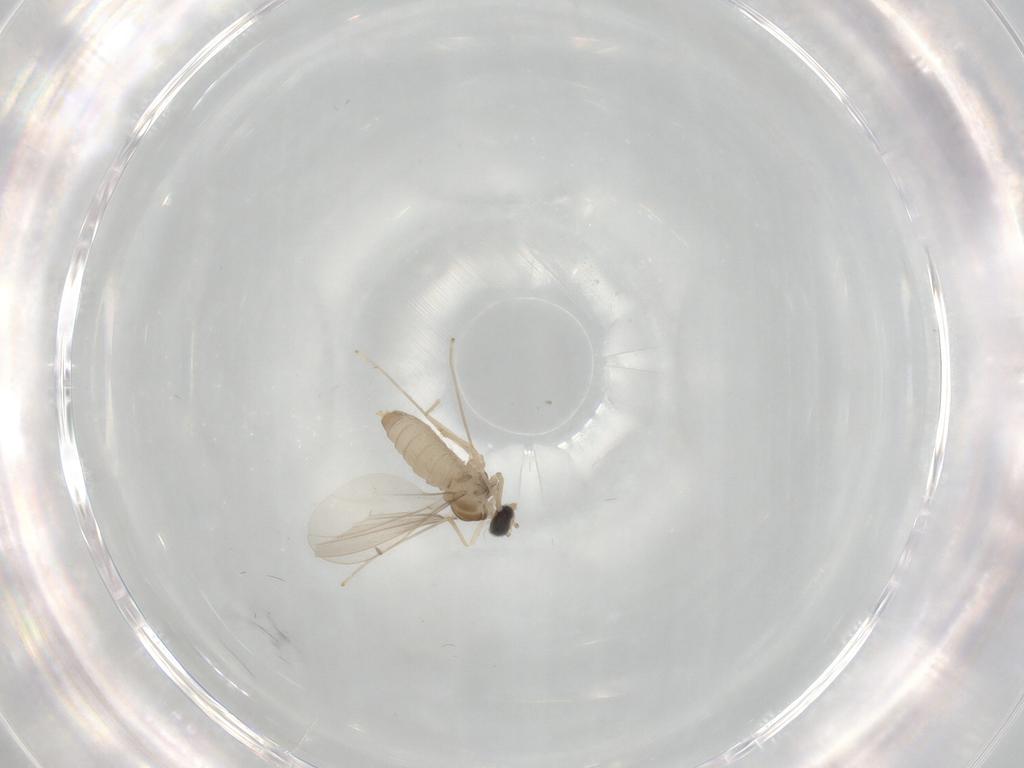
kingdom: Animalia
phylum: Arthropoda
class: Insecta
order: Diptera
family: Cecidomyiidae
